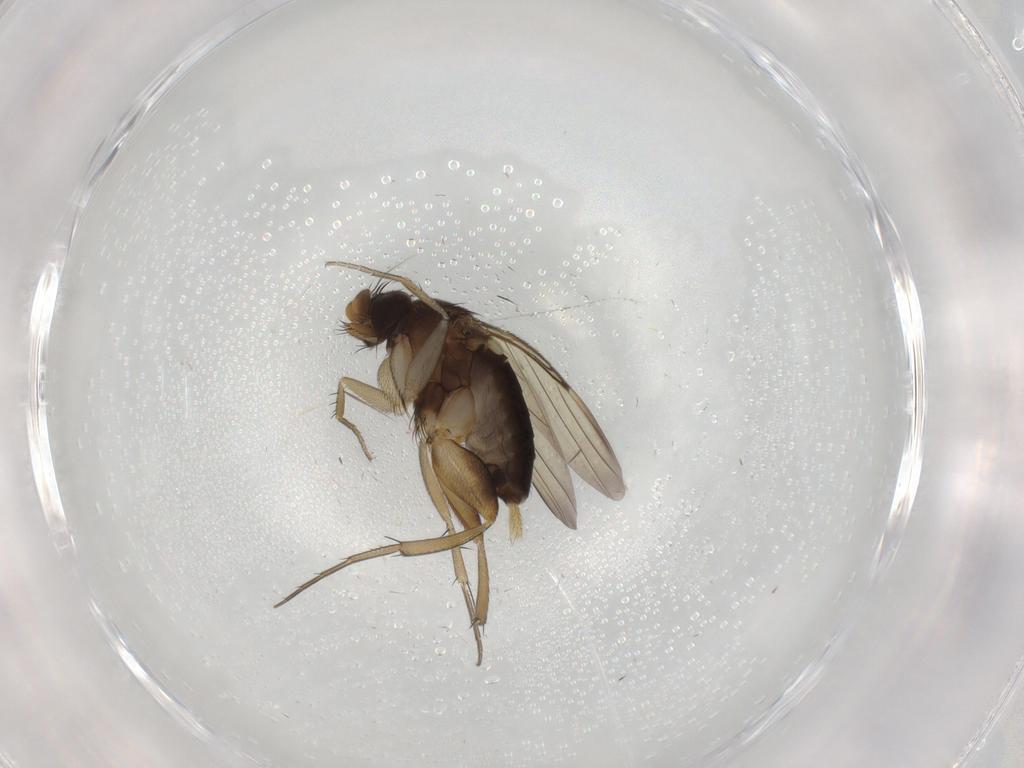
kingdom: Animalia
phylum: Arthropoda
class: Insecta
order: Diptera
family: Phoridae
